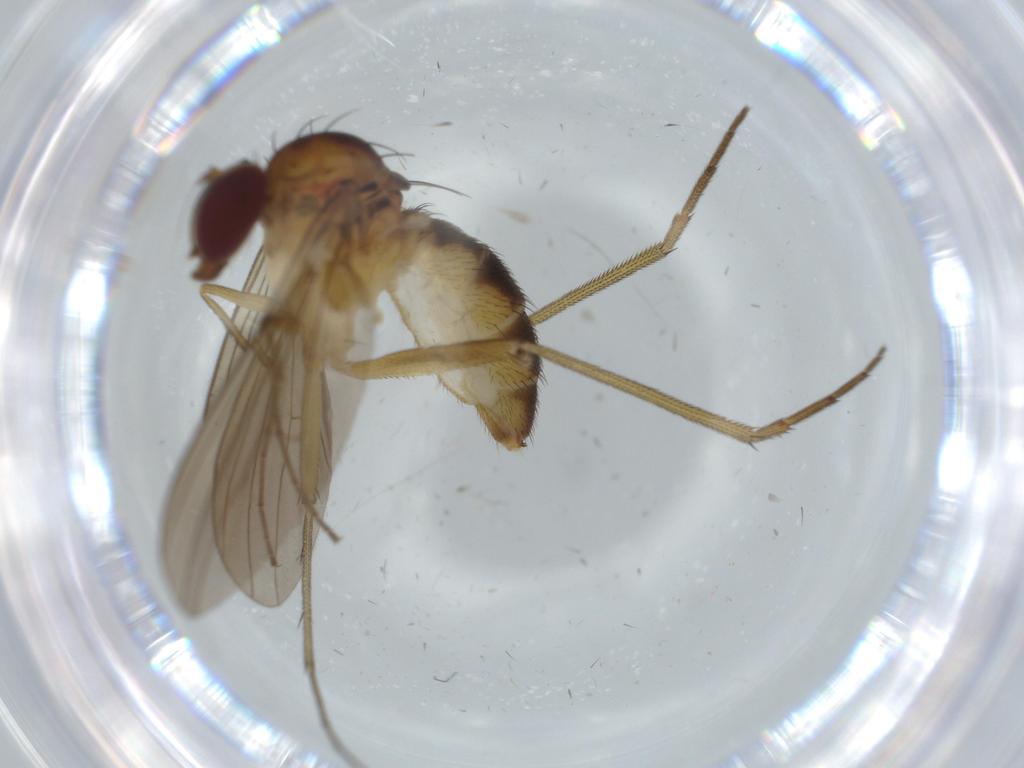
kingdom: Animalia
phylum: Arthropoda
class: Insecta
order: Diptera
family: Dolichopodidae
